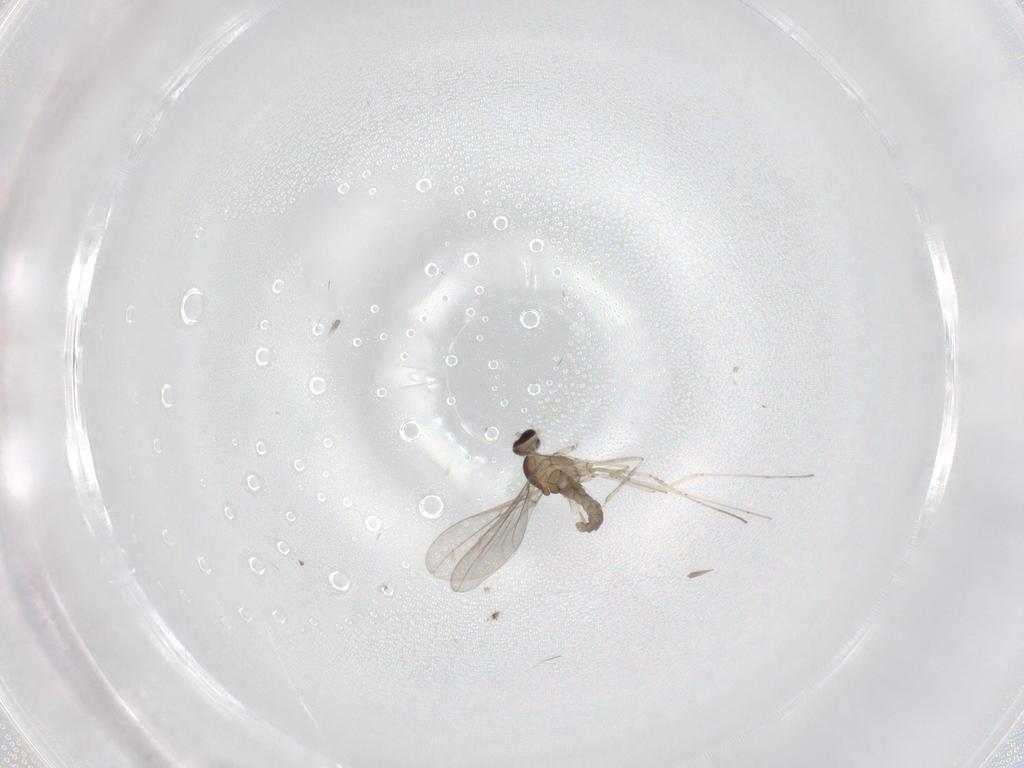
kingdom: Animalia
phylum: Arthropoda
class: Insecta
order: Diptera
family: Cecidomyiidae
